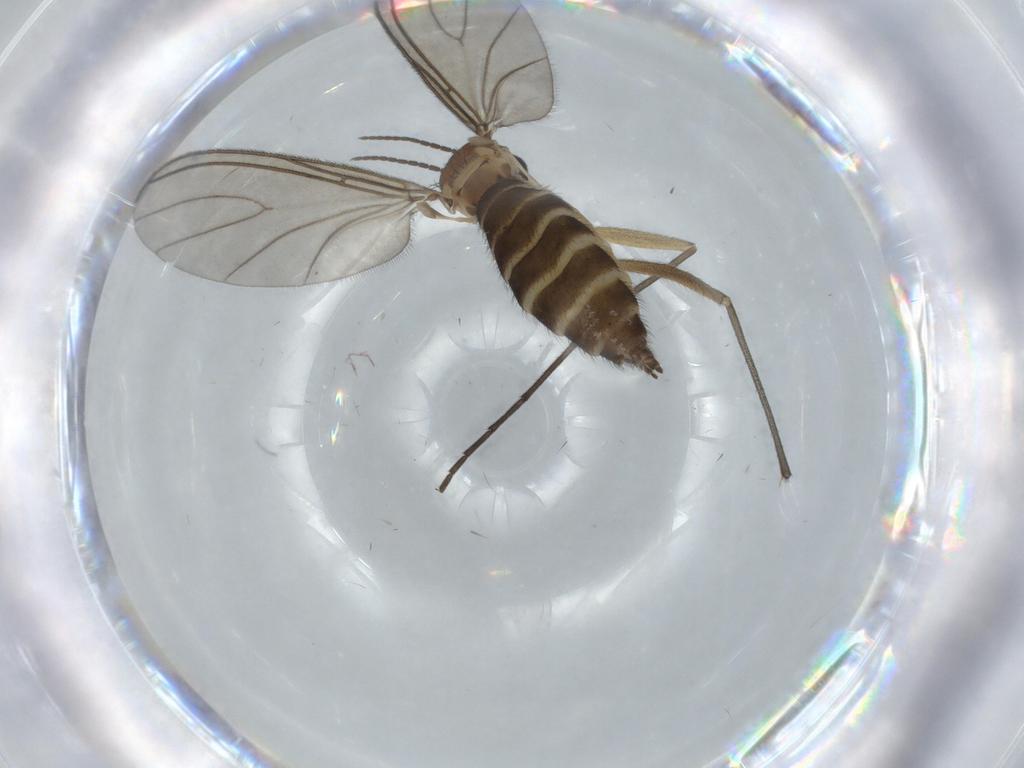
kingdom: Animalia
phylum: Arthropoda
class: Insecta
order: Diptera
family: Sciaridae
